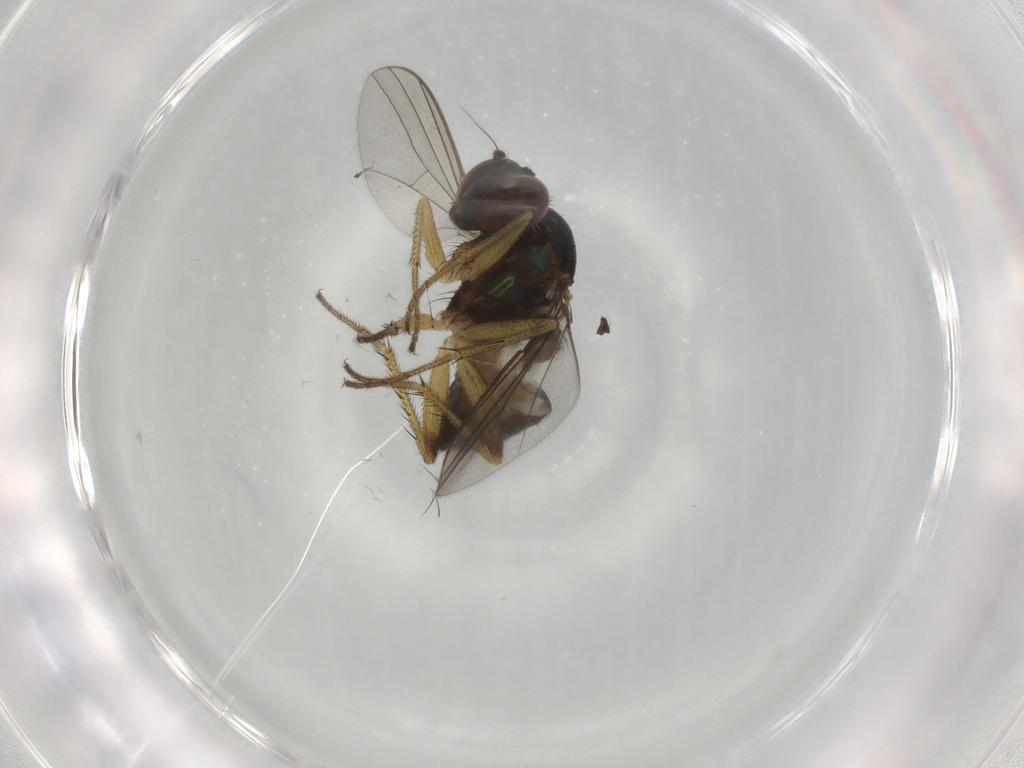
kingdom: Animalia
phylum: Arthropoda
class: Insecta
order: Diptera
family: Dolichopodidae
